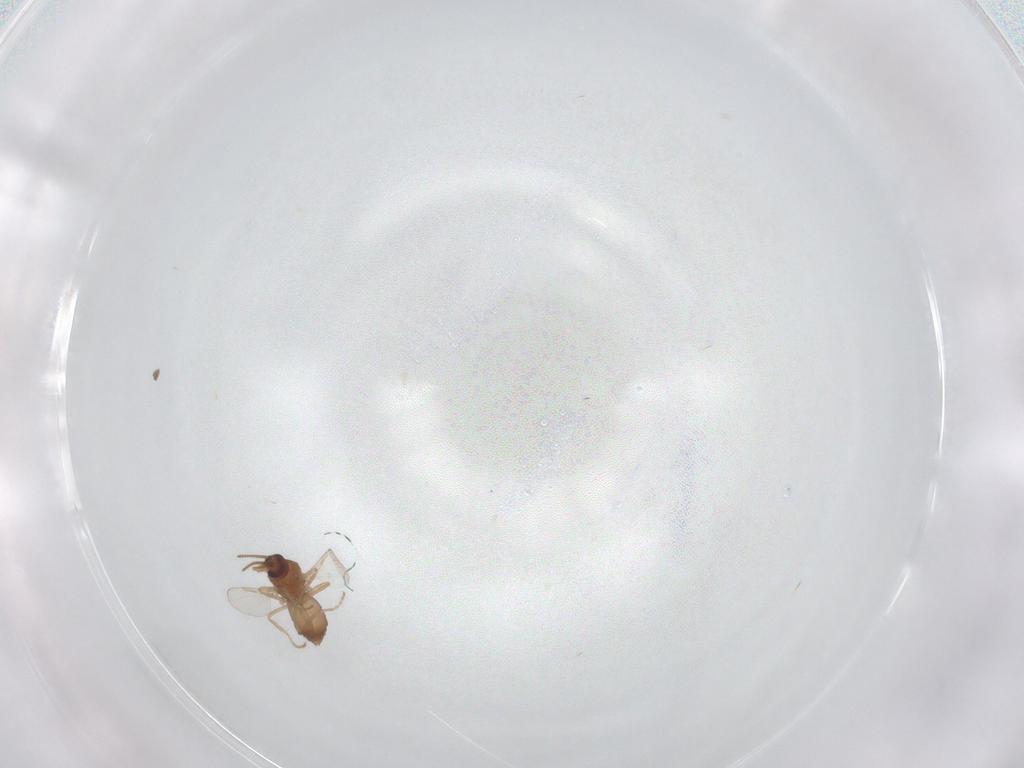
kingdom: Animalia
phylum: Arthropoda
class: Insecta
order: Diptera
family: Ceratopogonidae
